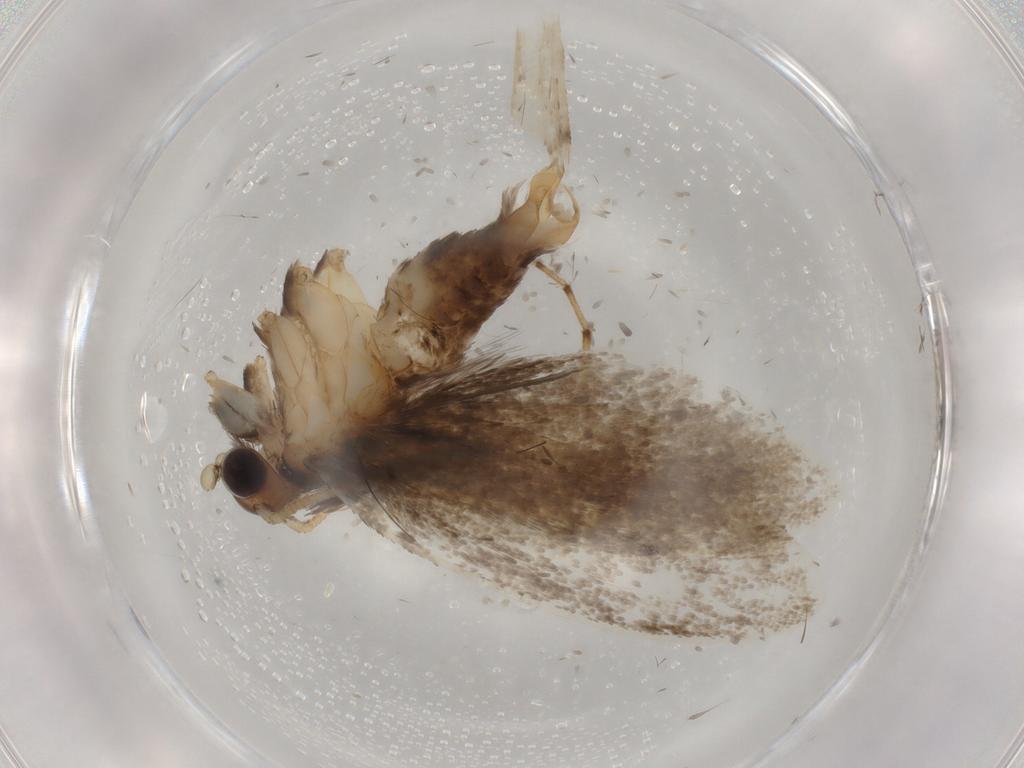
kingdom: Animalia
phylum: Arthropoda
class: Insecta
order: Lepidoptera
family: Tineidae
